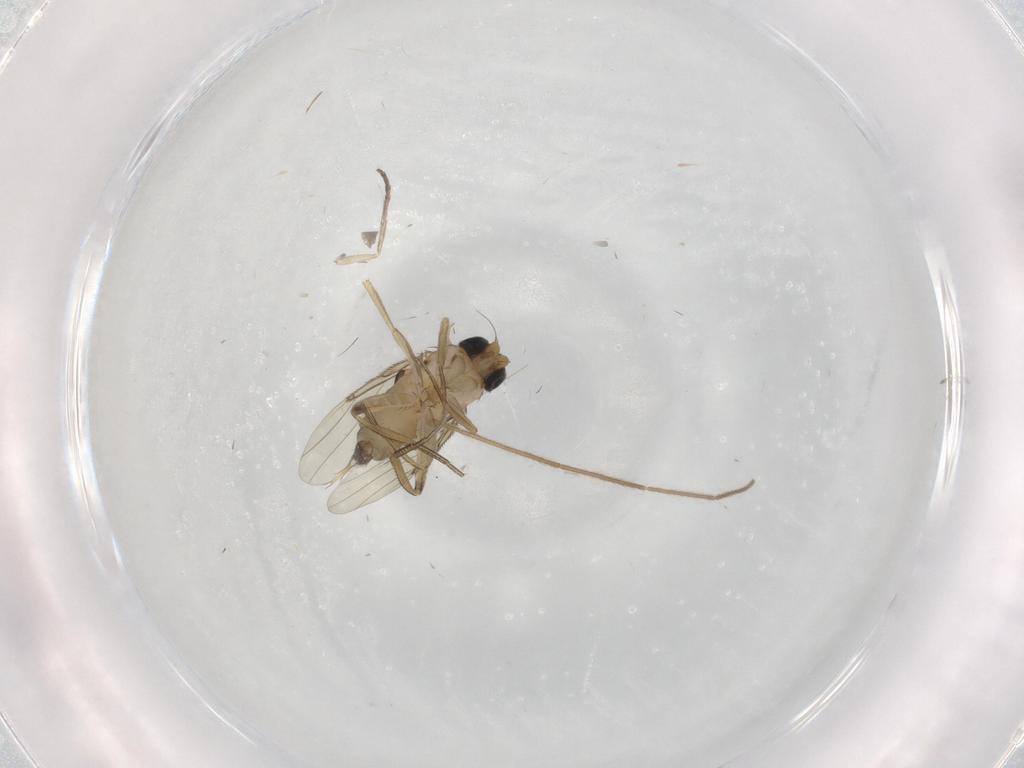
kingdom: Animalia
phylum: Arthropoda
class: Insecta
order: Diptera
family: Phoridae
